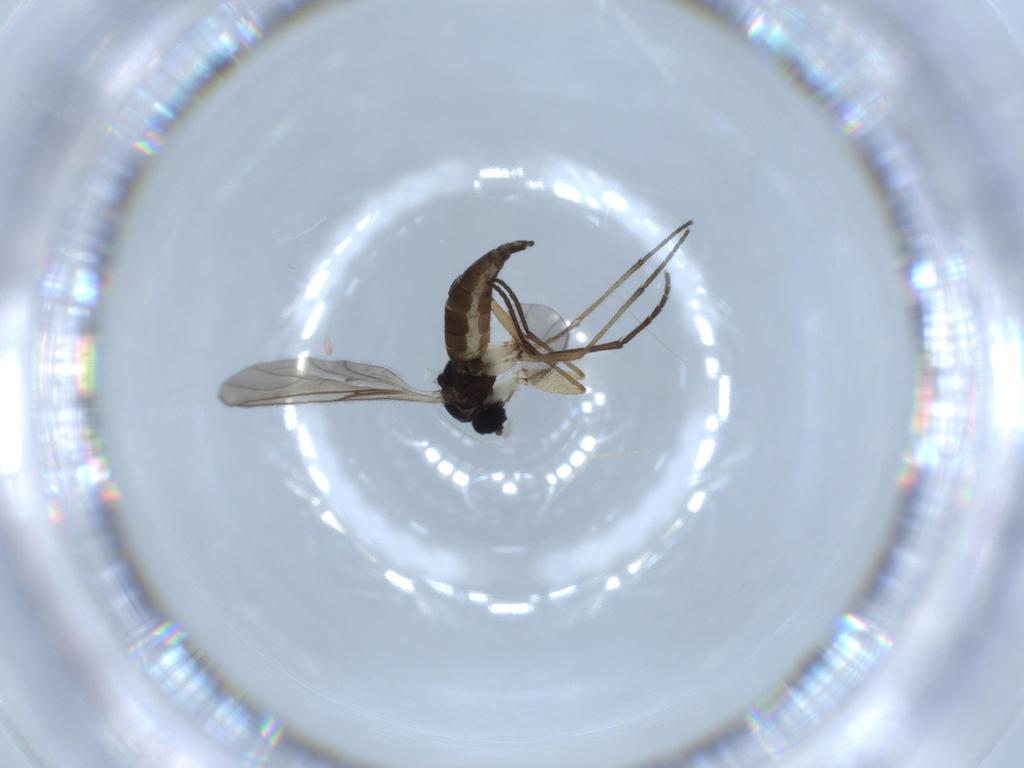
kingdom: Animalia
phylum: Arthropoda
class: Insecta
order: Diptera
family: Sciaridae
